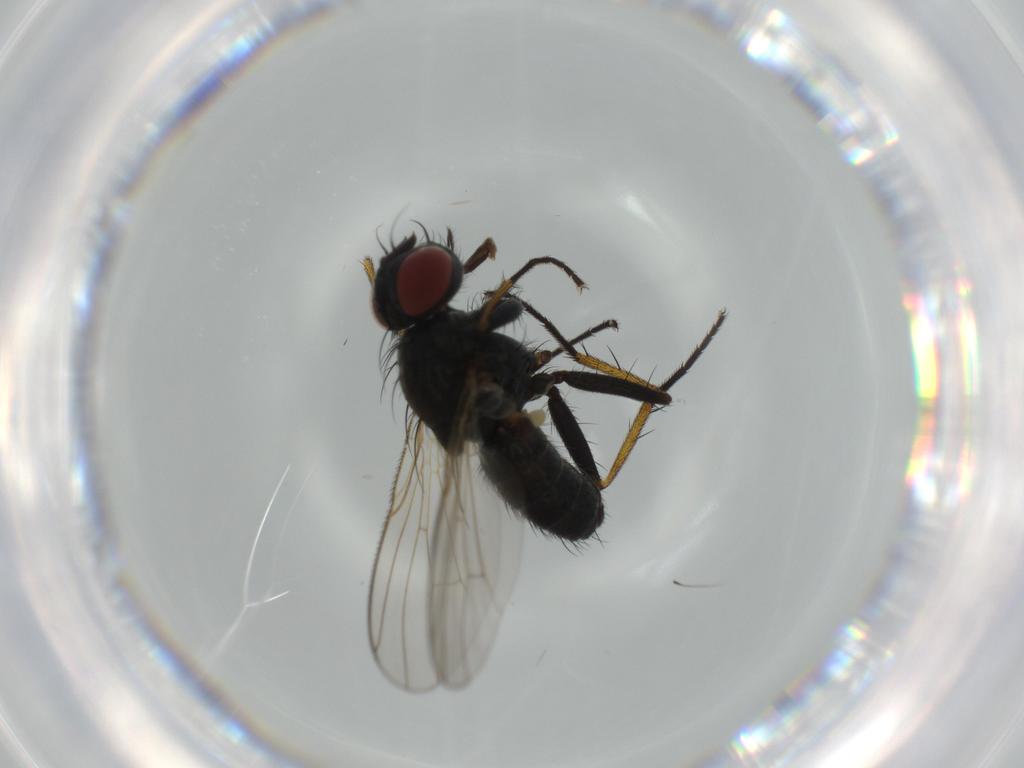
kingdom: Animalia
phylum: Arthropoda
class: Insecta
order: Diptera
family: Muscidae
